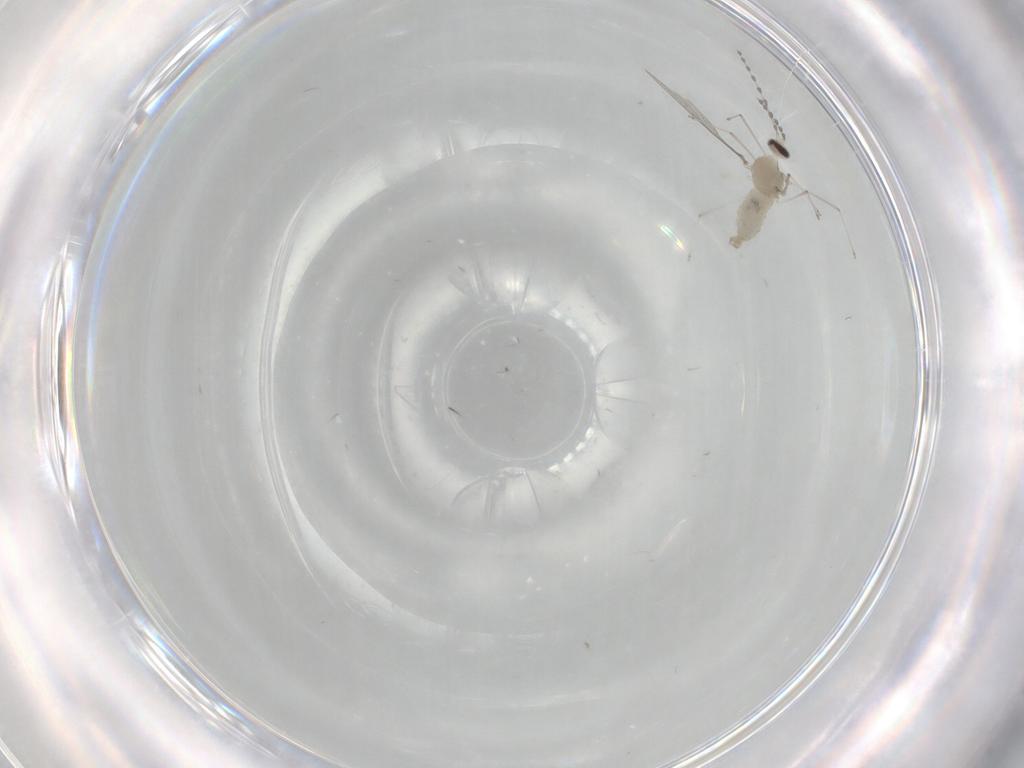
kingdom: Animalia
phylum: Arthropoda
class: Insecta
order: Diptera
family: Cecidomyiidae
